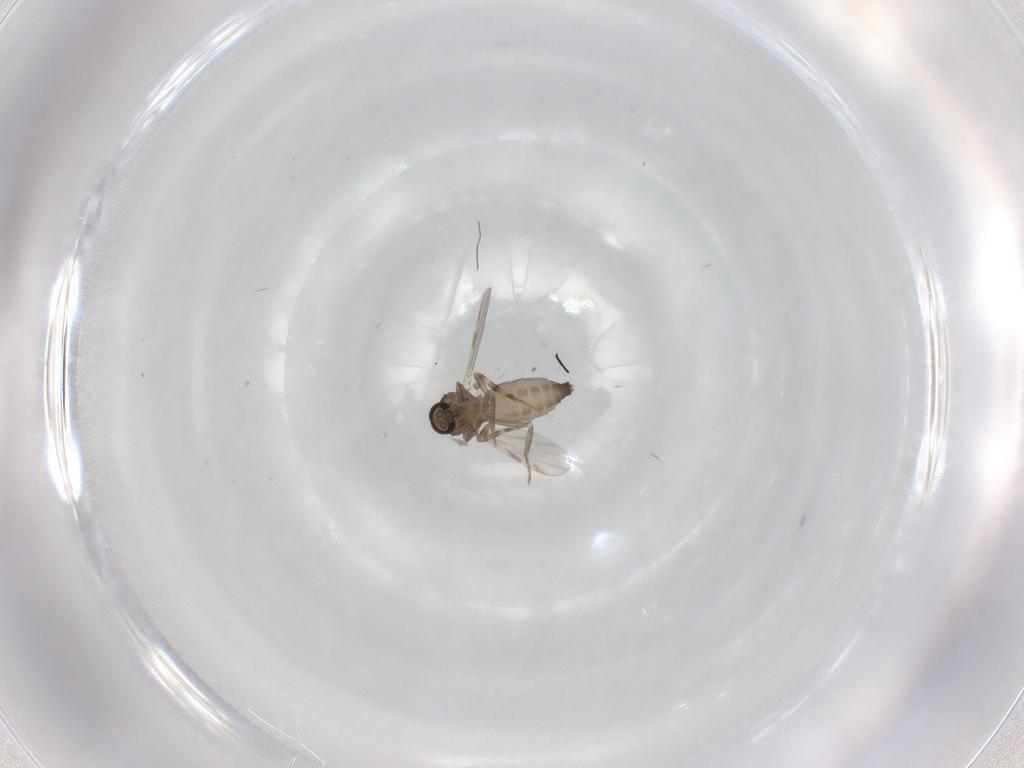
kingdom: Animalia
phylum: Arthropoda
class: Insecta
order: Diptera
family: Ceratopogonidae
